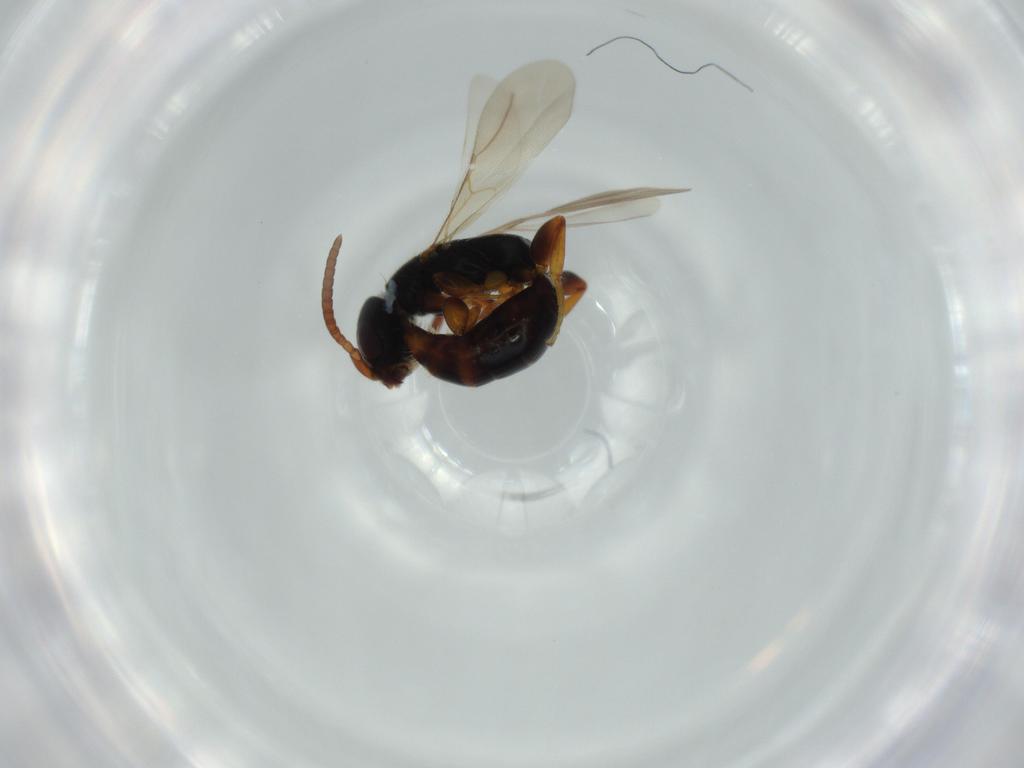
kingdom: Animalia
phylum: Arthropoda
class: Insecta
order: Hymenoptera
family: Bethylidae
